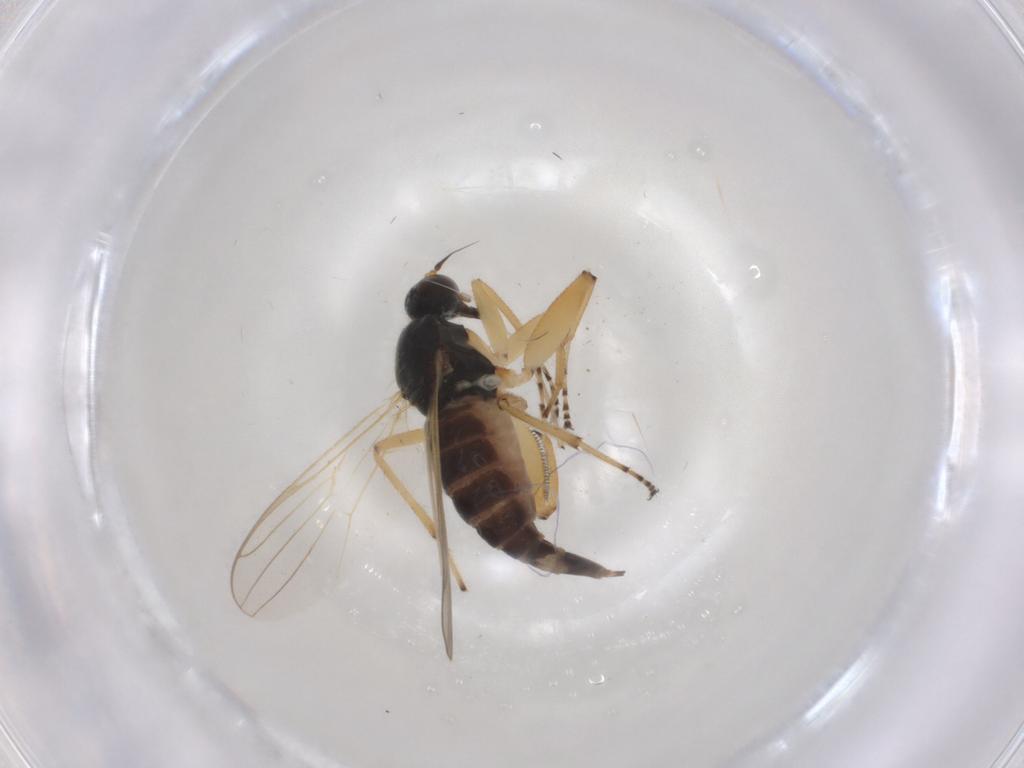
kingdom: Animalia
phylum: Arthropoda
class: Insecta
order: Diptera
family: Hybotidae
